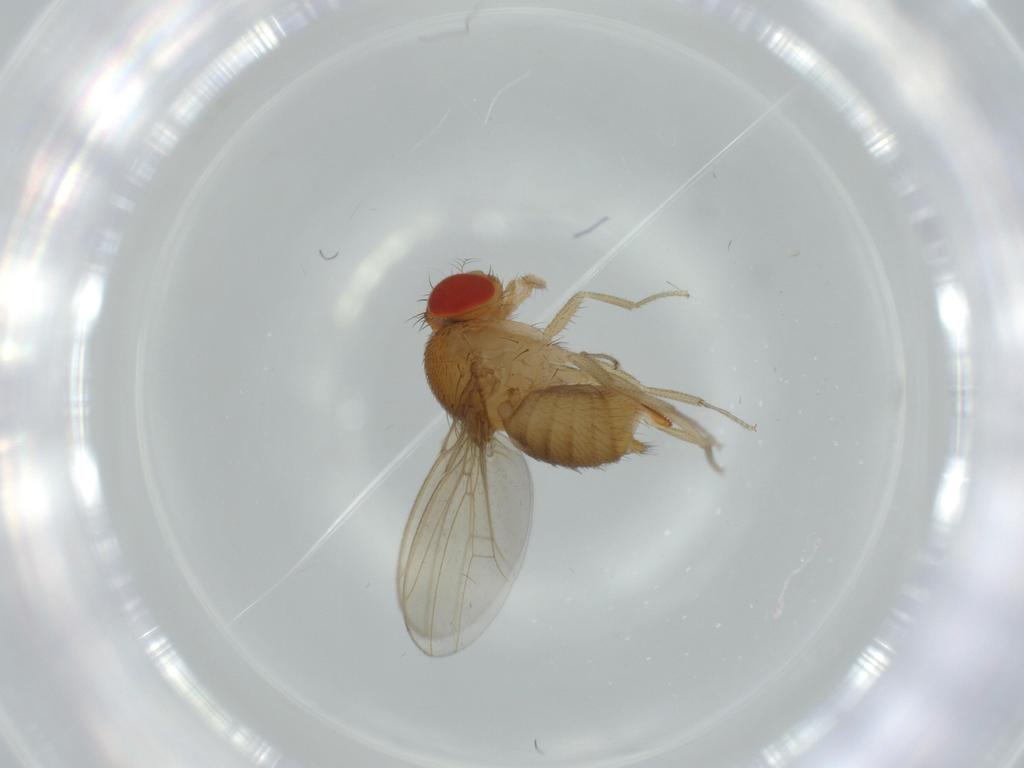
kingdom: Animalia
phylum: Arthropoda
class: Insecta
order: Diptera
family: Drosophilidae
